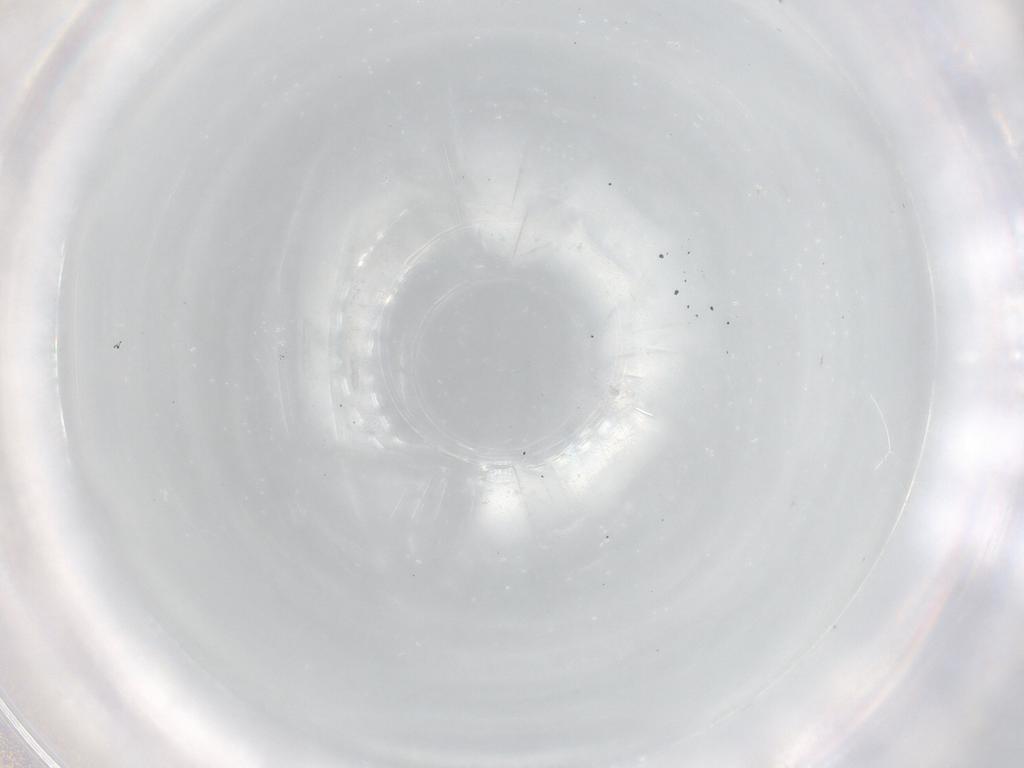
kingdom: Animalia
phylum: Arthropoda
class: Arachnida
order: Sarcoptiformes
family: Eremaeidae
